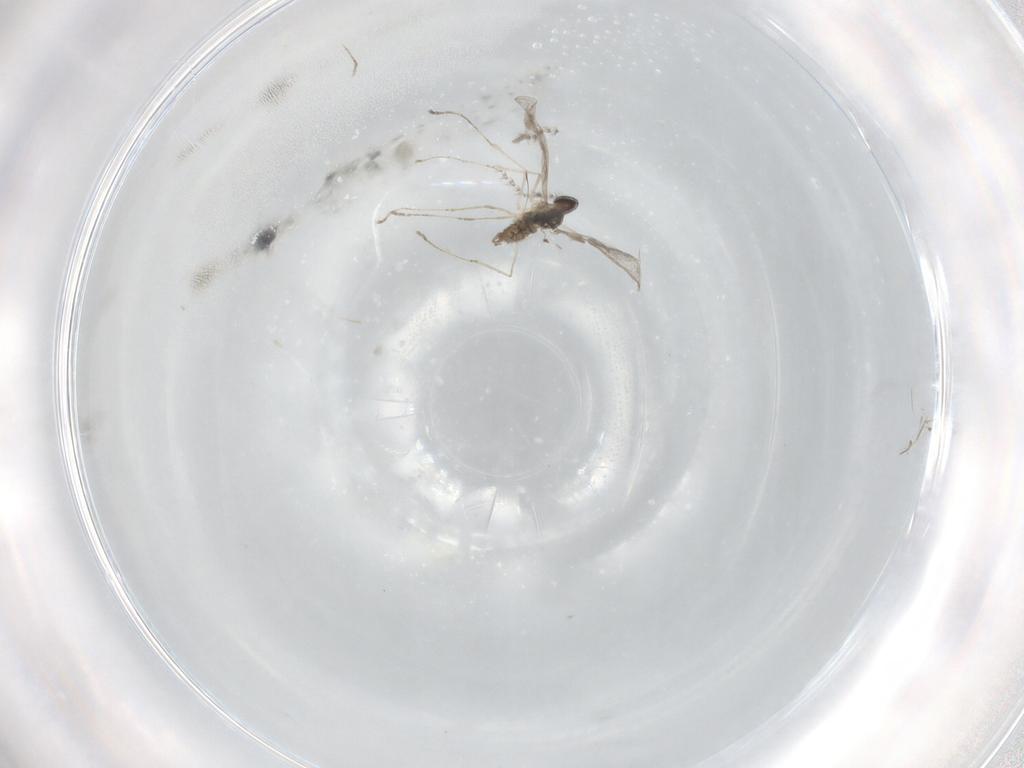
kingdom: Animalia
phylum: Arthropoda
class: Insecta
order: Diptera
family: Cecidomyiidae
